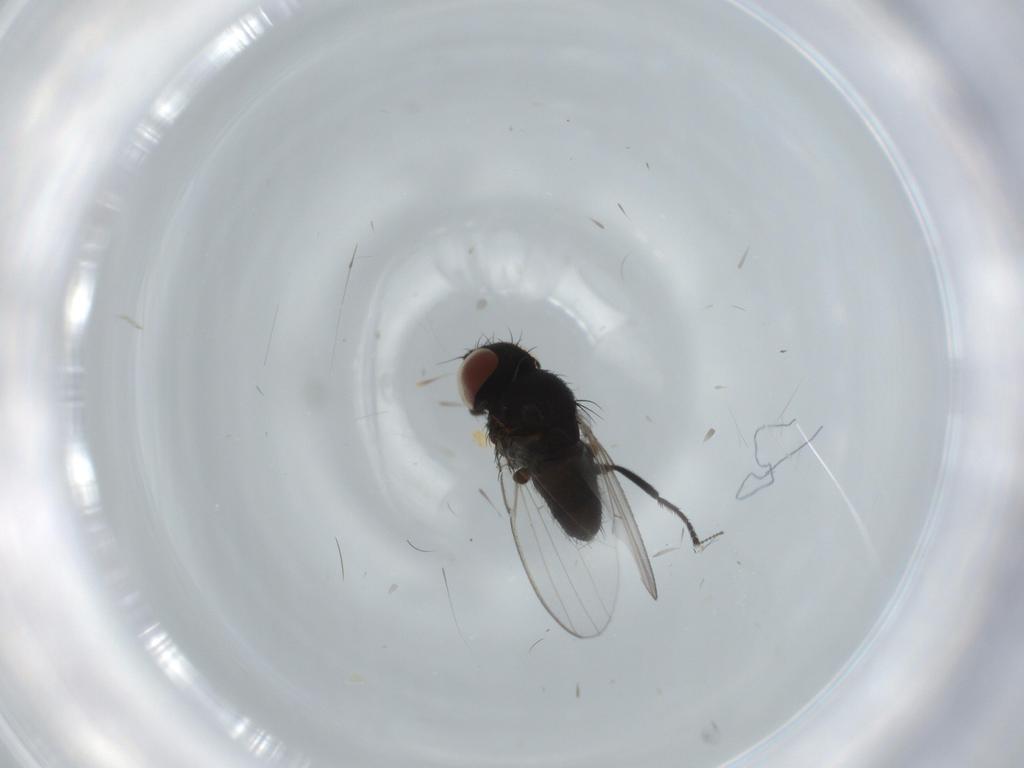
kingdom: Animalia
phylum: Arthropoda
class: Insecta
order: Diptera
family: Milichiidae
